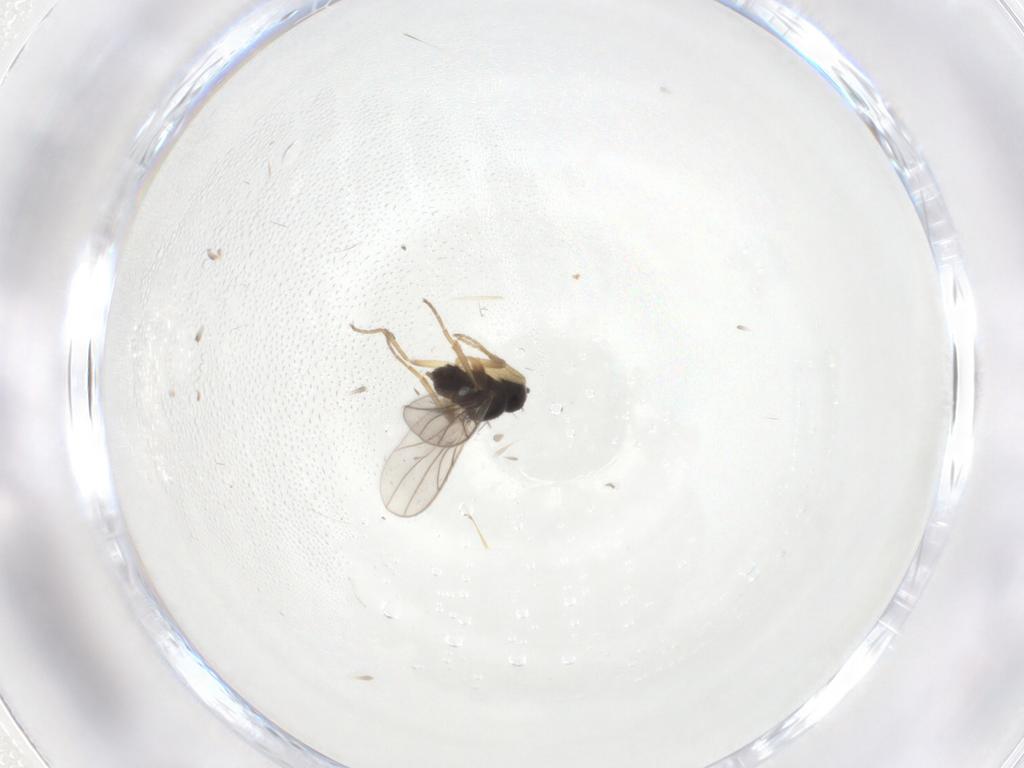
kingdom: Animalia
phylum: Arthropoda
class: Insecta
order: Diptera
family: Hybotidae
